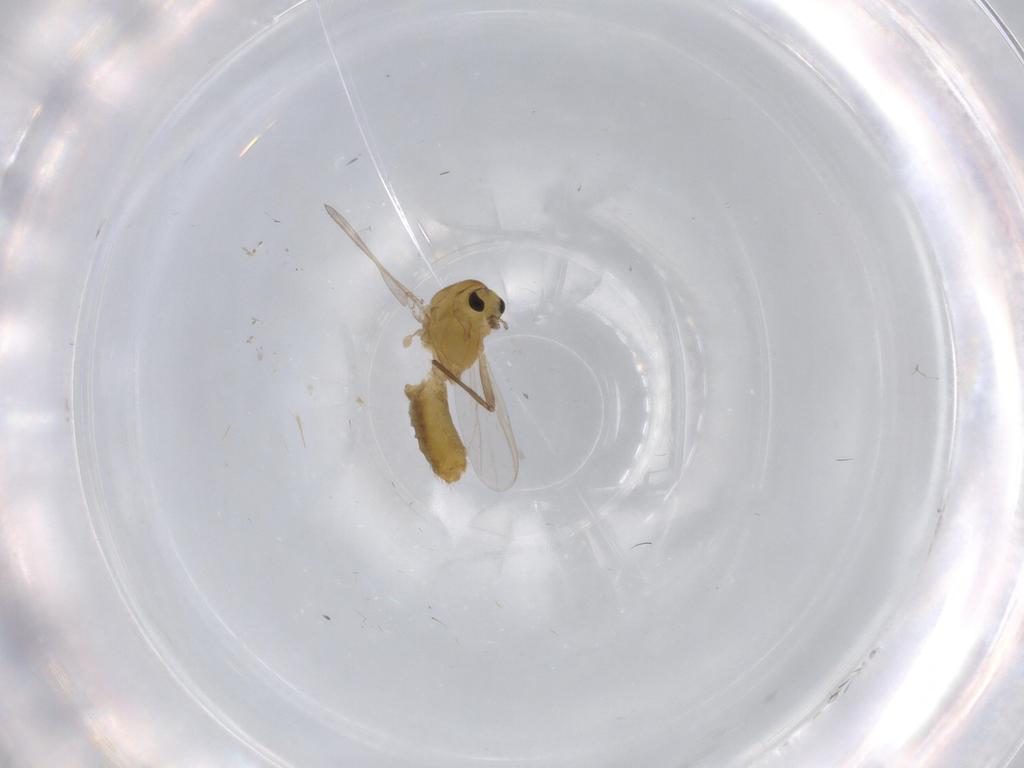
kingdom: Animalia
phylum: Arthropoda
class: Insecta
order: Diptera
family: Chironomidae
